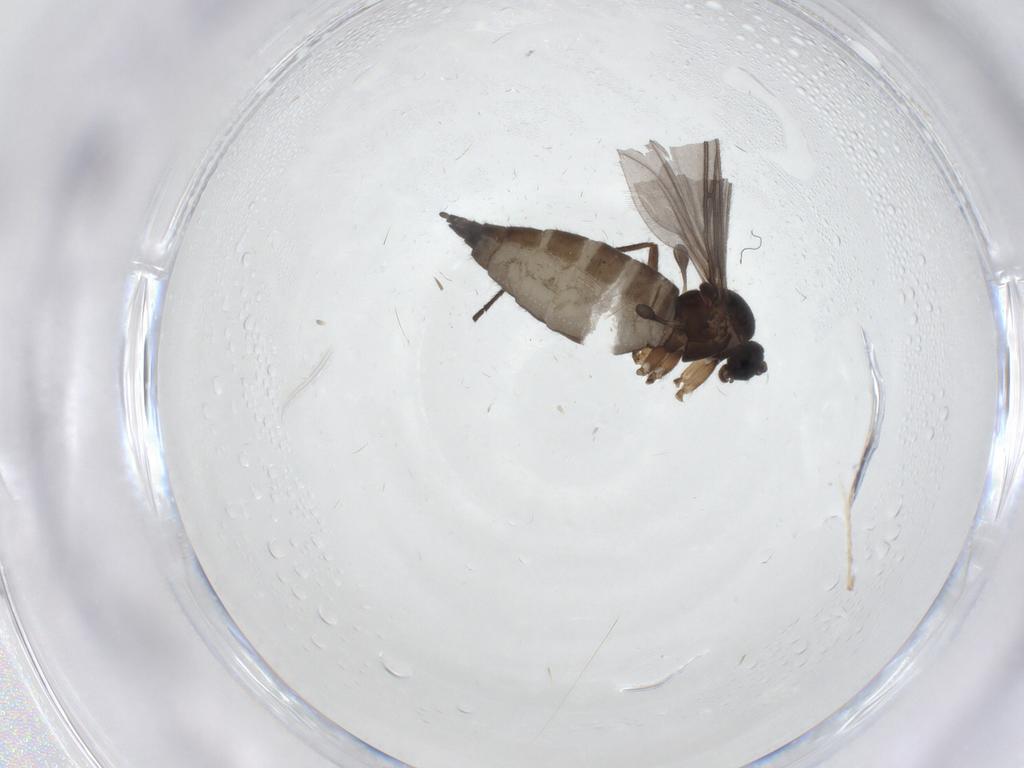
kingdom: Animalia
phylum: Arthropoda
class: Insecta
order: Diptera
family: Sciaridae
